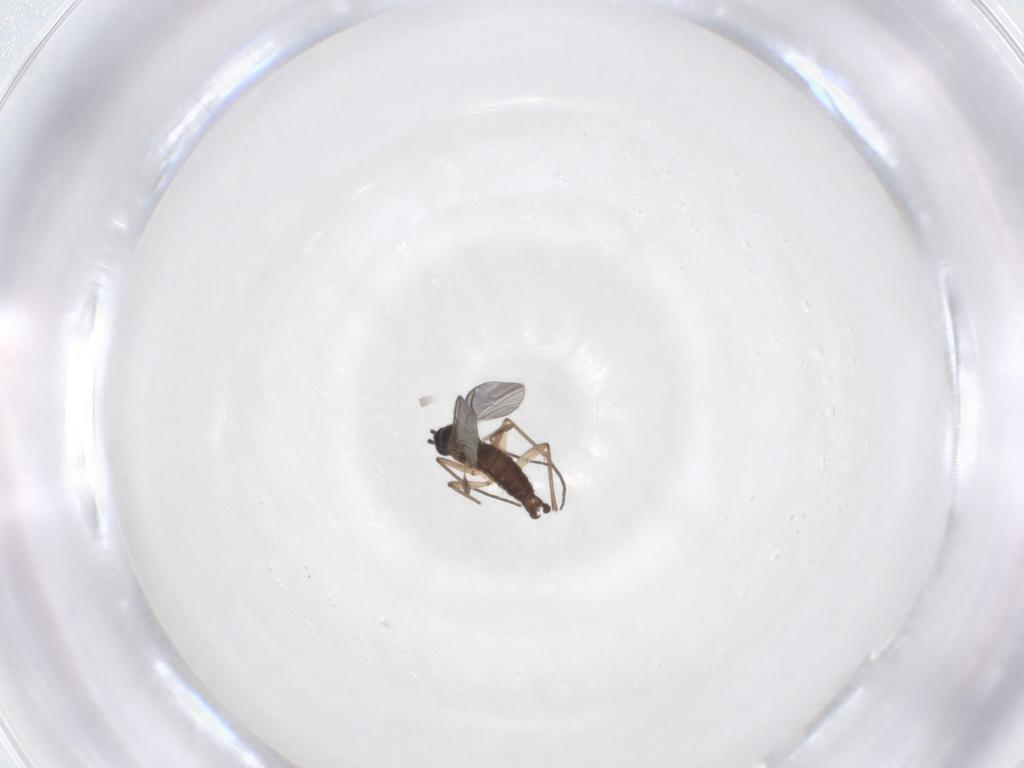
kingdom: Animalia
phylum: Arthropoda
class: Insecta
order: Diptera
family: Sciaridae
